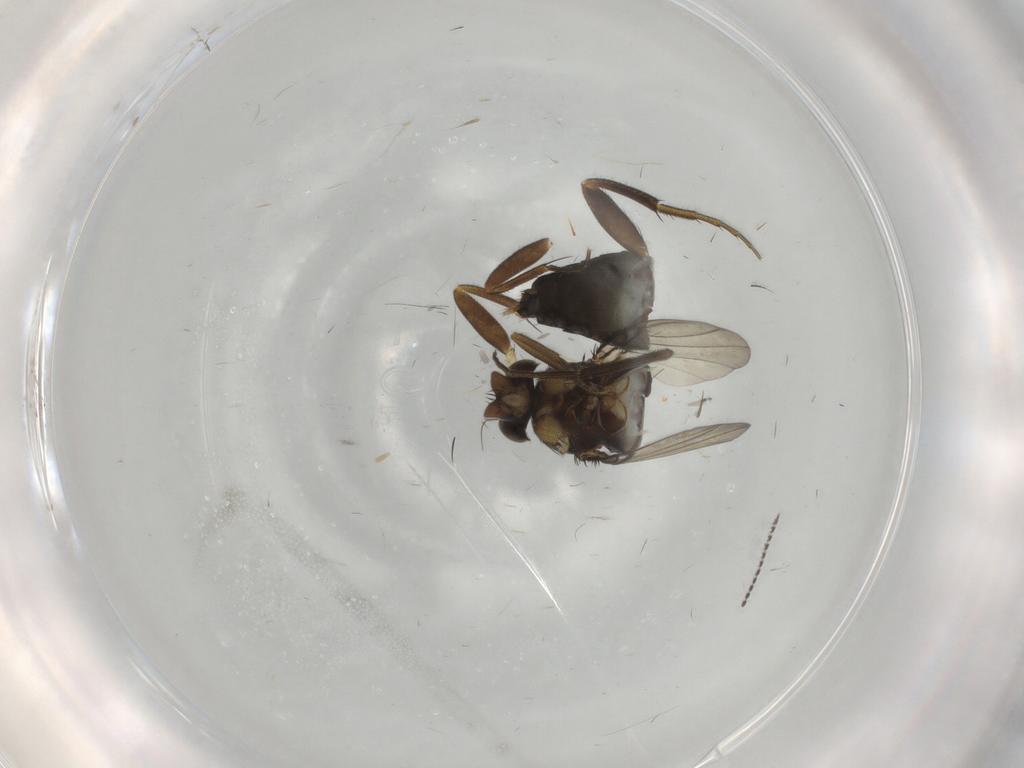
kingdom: Animalia
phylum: Arthropoda
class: Insecta
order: Diptera
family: Phoridae
